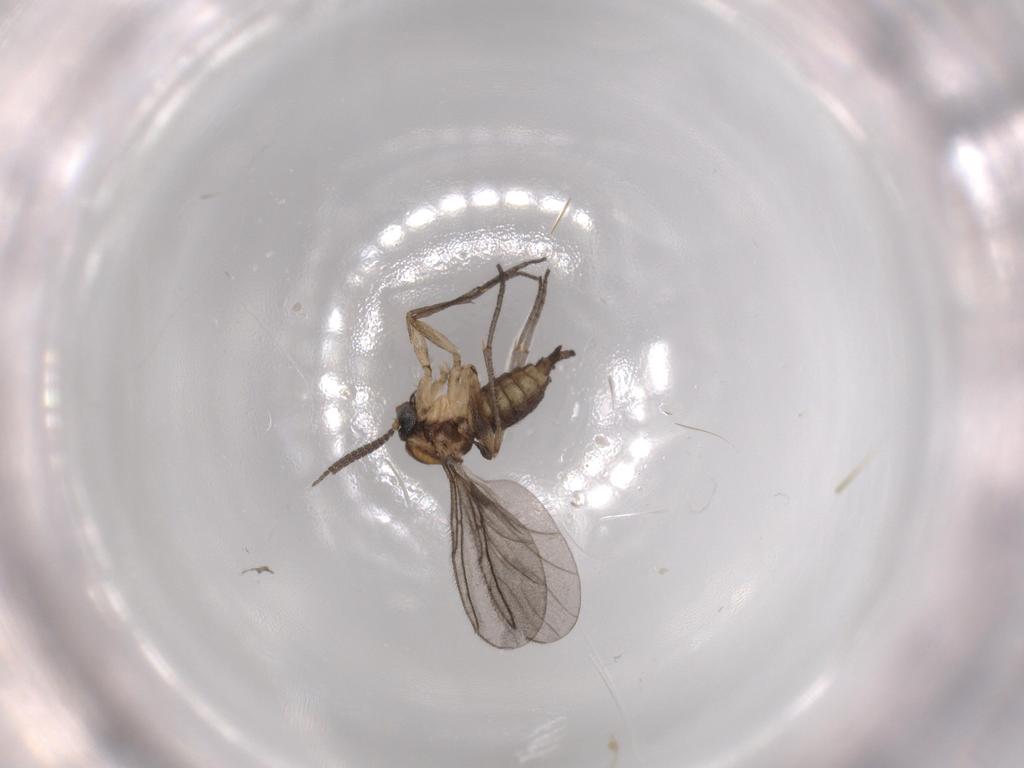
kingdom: Animalia
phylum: Arthropoda
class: Insecta
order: Diptera
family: Sciaridae
